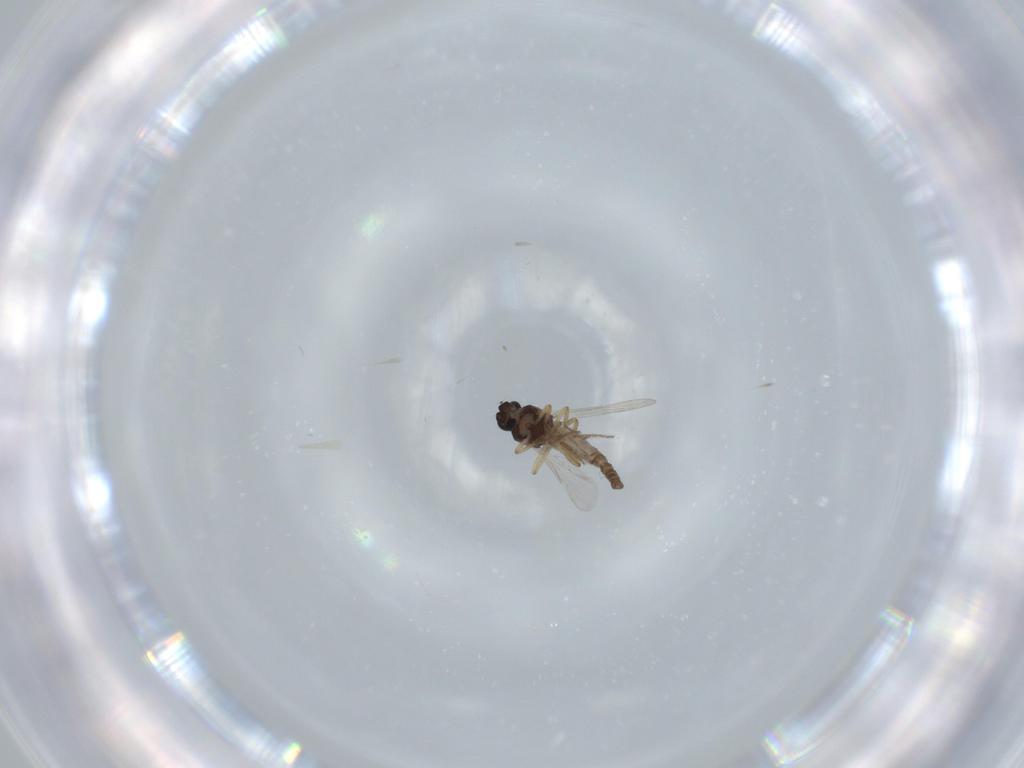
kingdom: Animalia
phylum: Arthropoda
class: Insecta
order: Diptera
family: Ceratopogonidae
